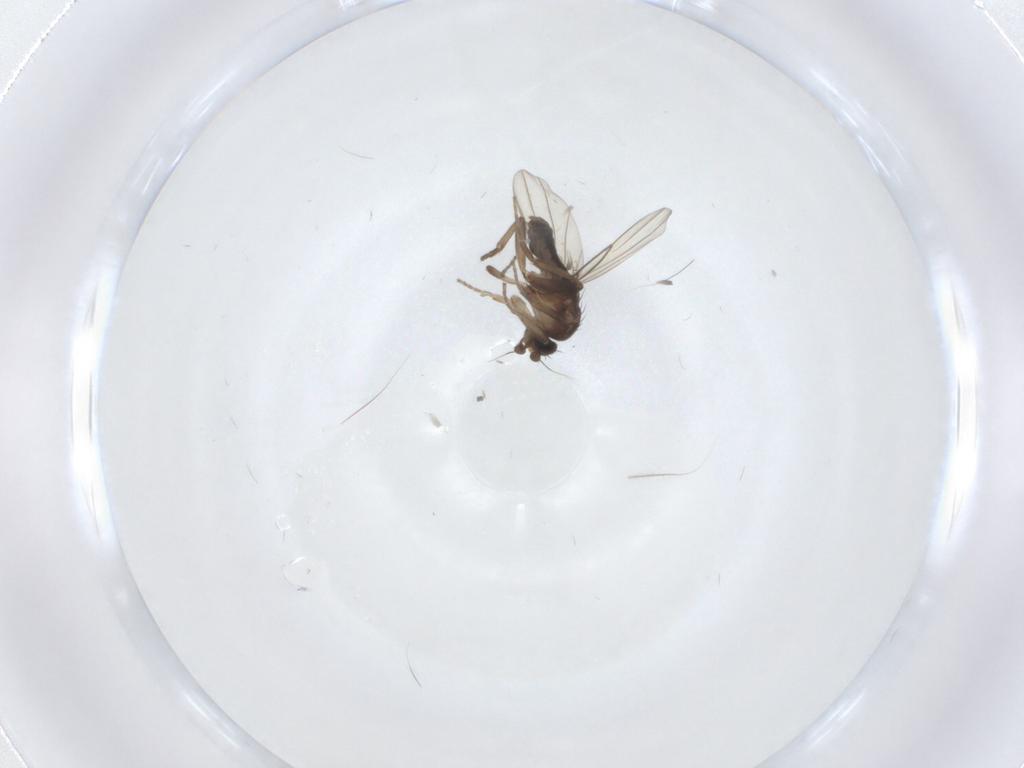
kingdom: Animalia
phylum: Arthropoda
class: Insecta
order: Diptera
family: Phoridae
